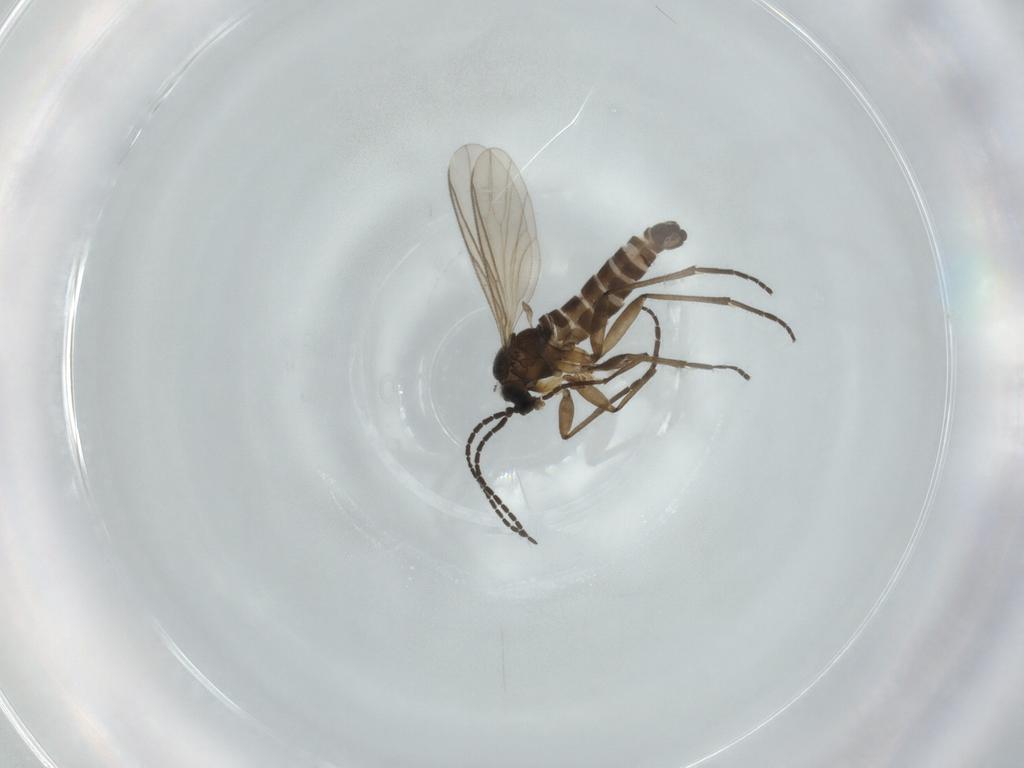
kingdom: Animalia
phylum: Arthropoda
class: Insecta
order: Diptera
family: Sciaridae
